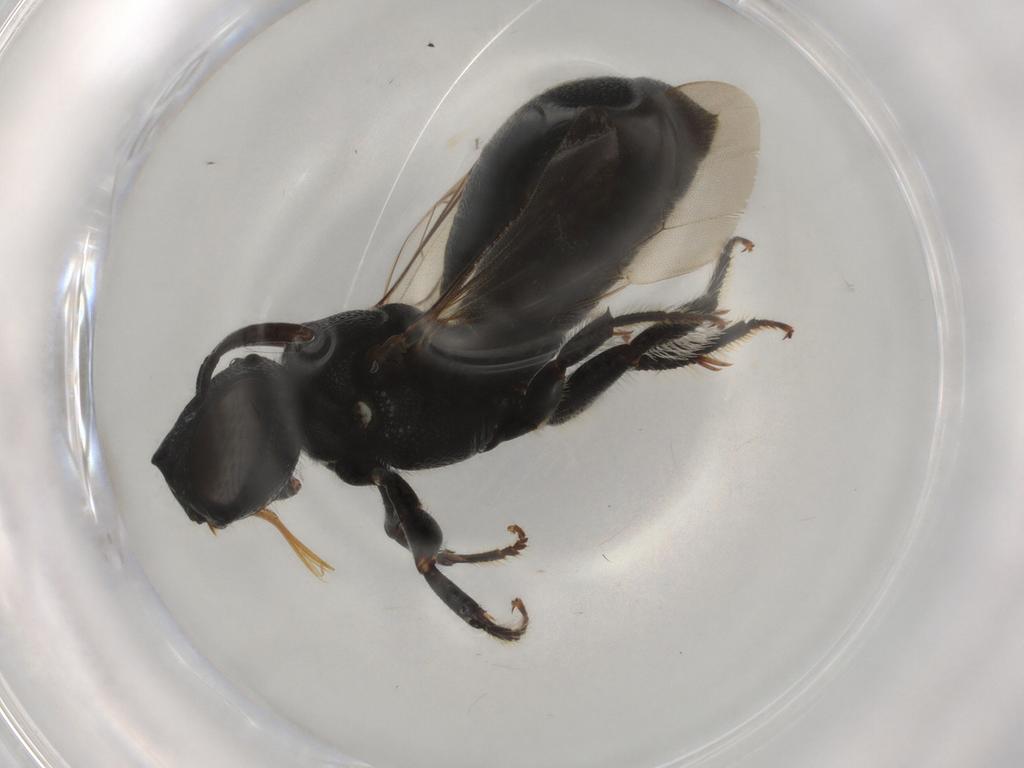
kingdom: Animalia
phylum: Arthropoda
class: Insecta
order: Hymenoptera
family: Apidae
